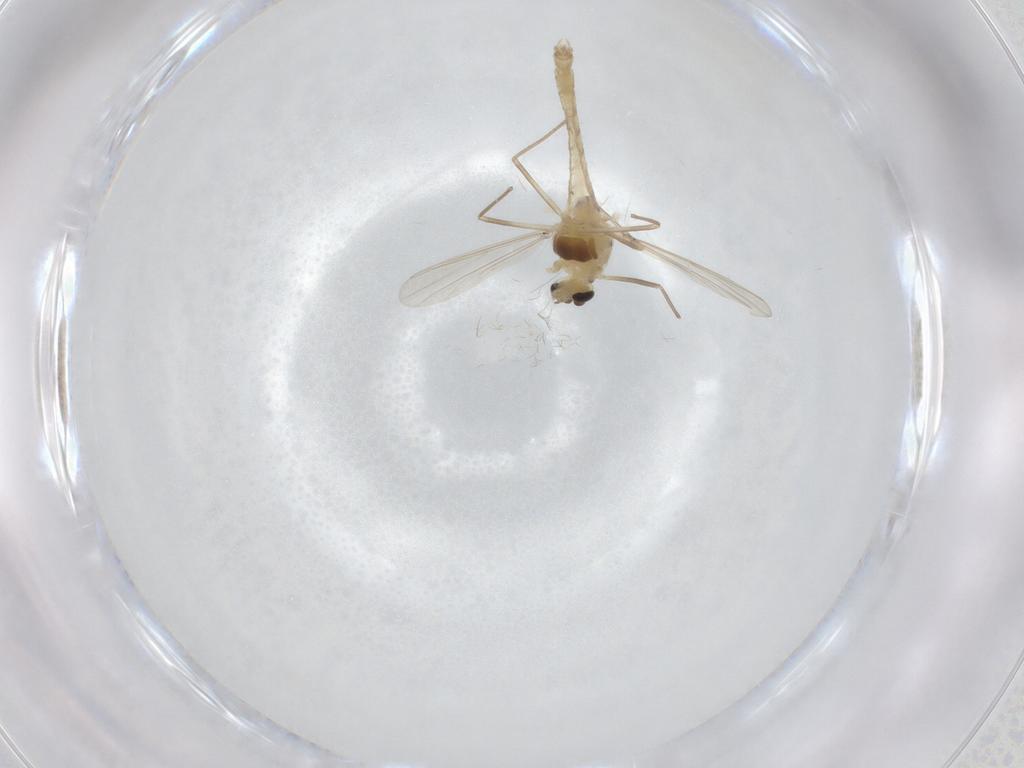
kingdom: Animalia
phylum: Arthropoda
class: Insecta
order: Diptera
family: Chironomidae
